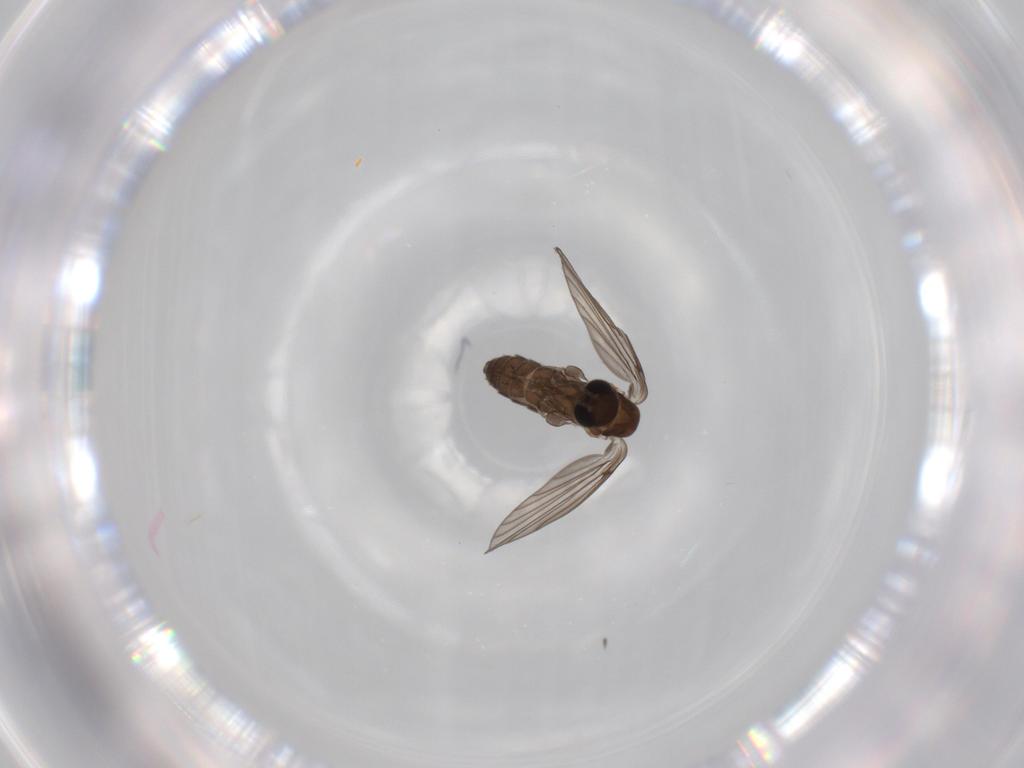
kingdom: Animalia
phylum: Arthropoda
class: Insecta
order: Diptera
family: Psychodidae
